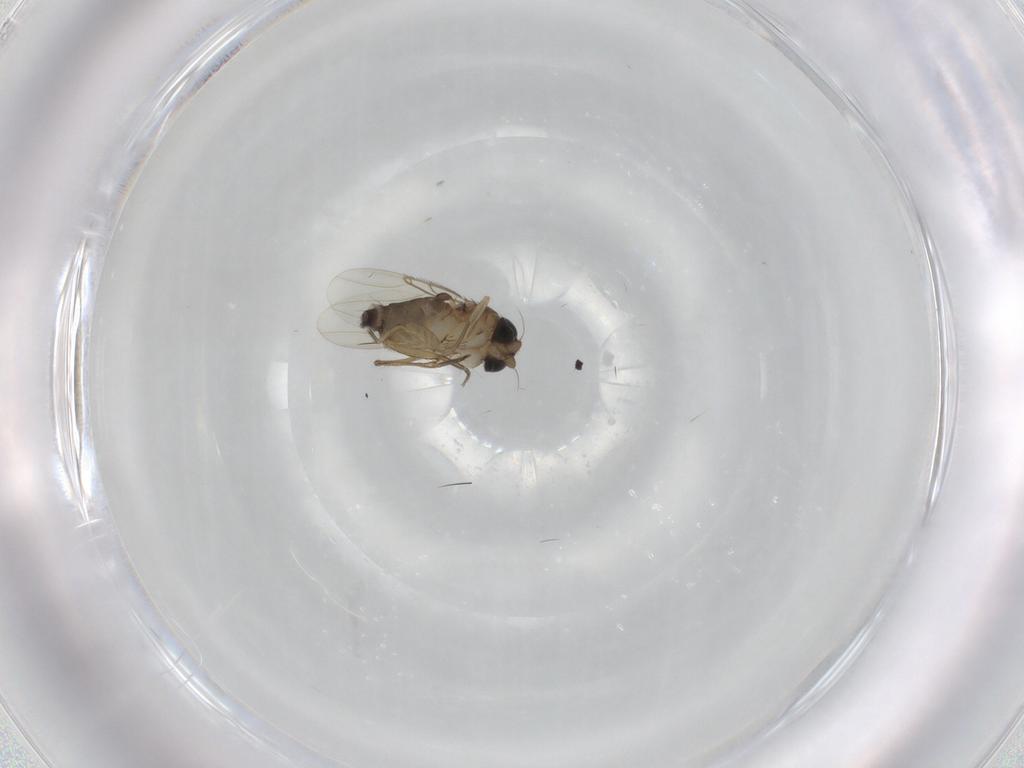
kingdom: Animalia
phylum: Arthropoda
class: Insecta
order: Diptera
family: Phoridae
